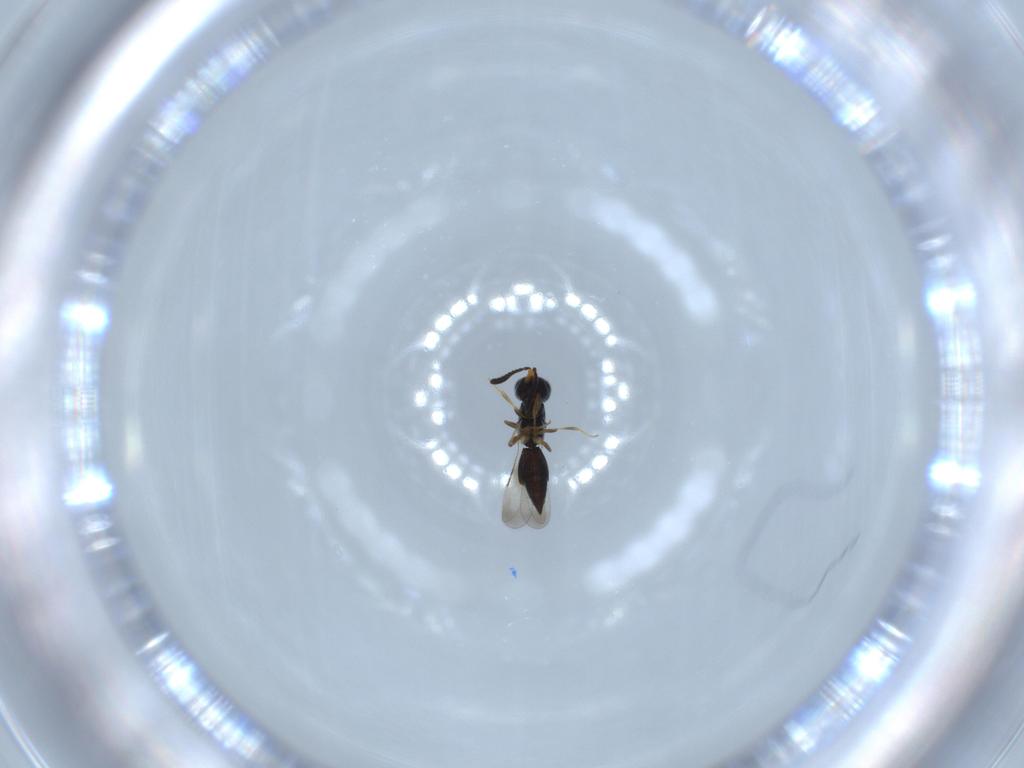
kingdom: Animalia
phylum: Arthropoda
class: Insecta
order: Hymenoptera
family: Ceraphronidae
